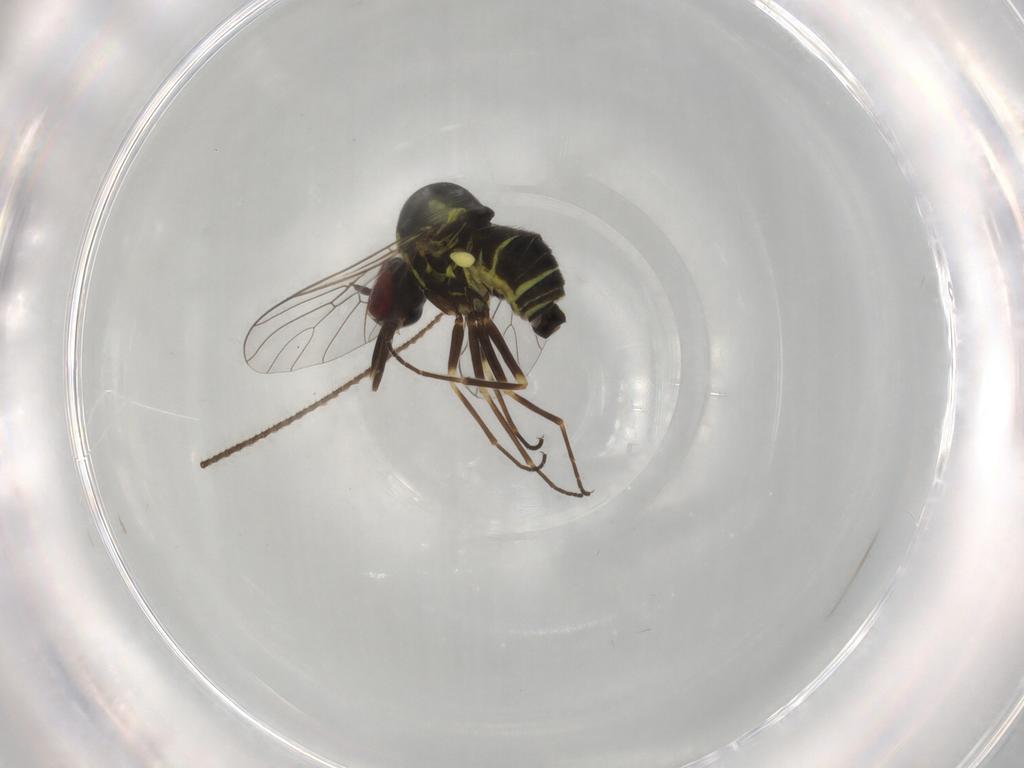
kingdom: Animalia
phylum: Arthropoda
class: Insecta
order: Diptera
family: Bombyliidae
